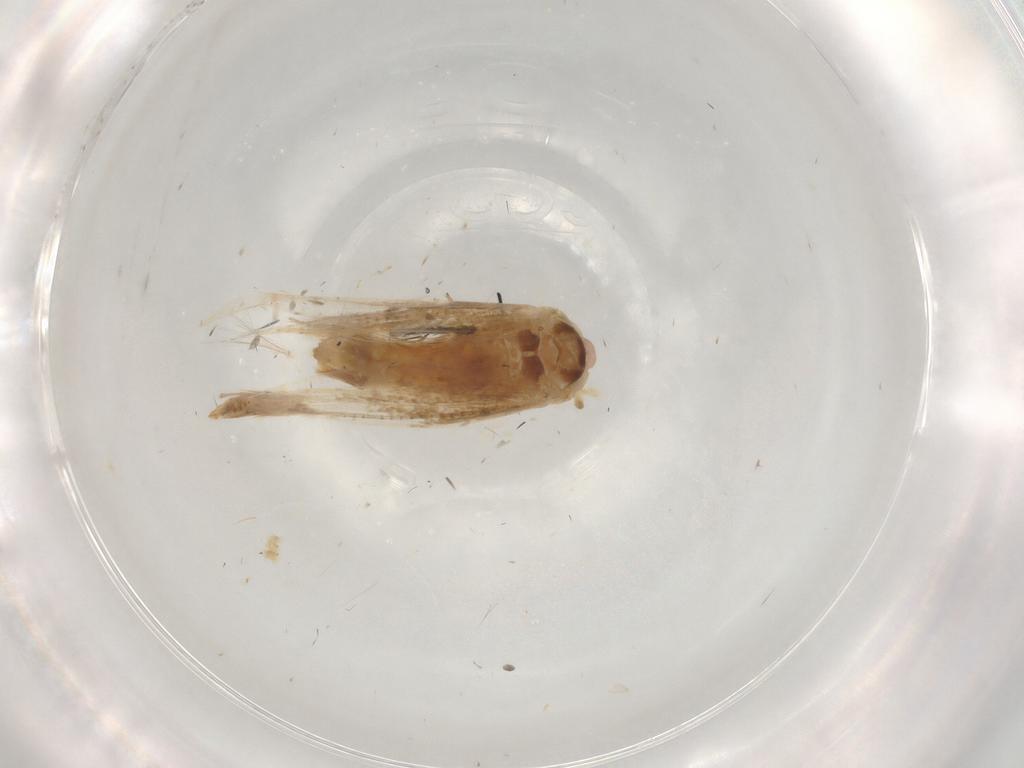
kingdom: Animalia
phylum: Arthropoda
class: Insecta
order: Lepidoptera
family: Bucculatricidae
